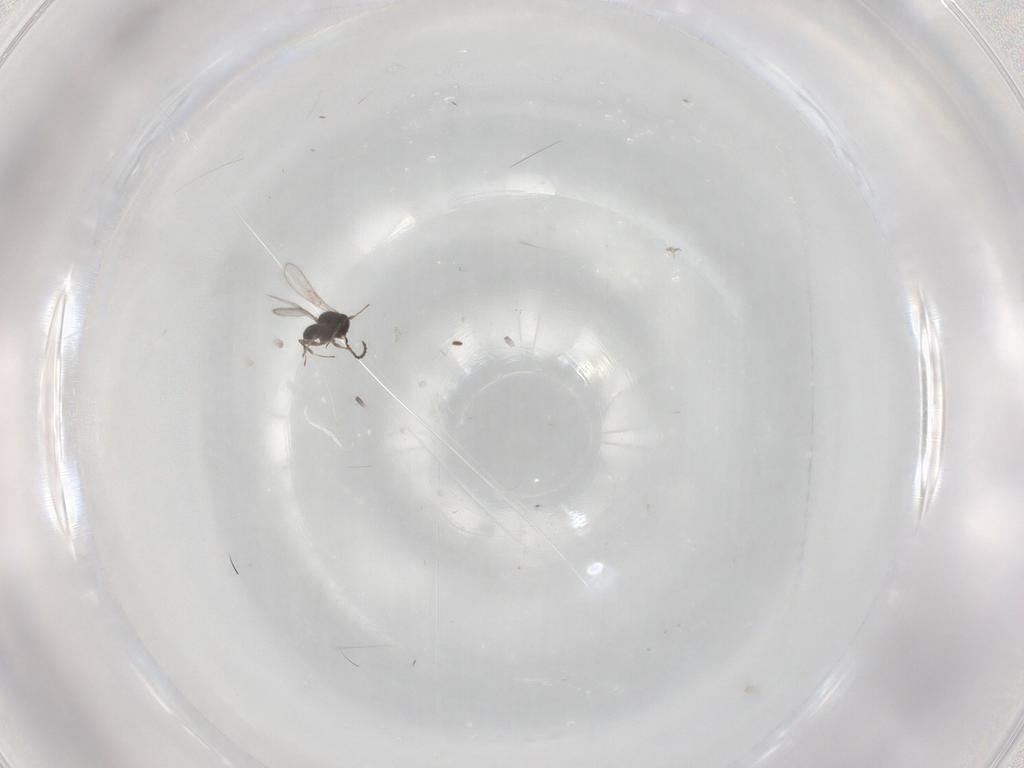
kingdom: Animalia
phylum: Arthropoda
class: Insecta
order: Hymenoptera
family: Scelionidae
